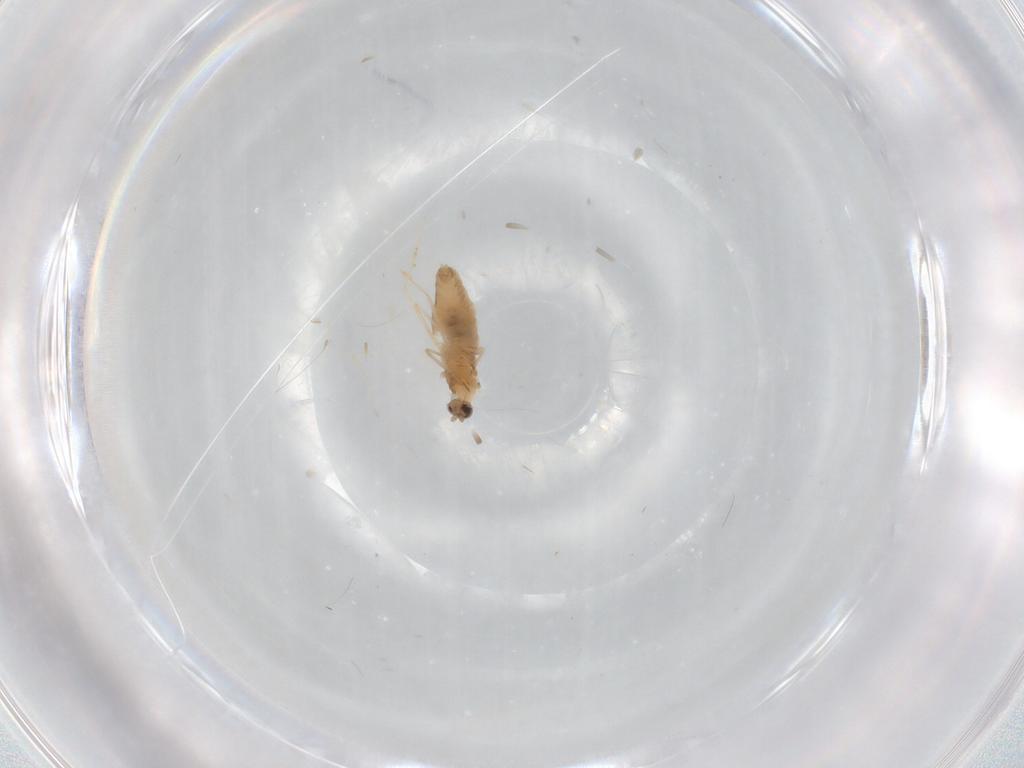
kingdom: Animalia
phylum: Arthropoda
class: Insecta
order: Diptera
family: Cecidomyiidae
